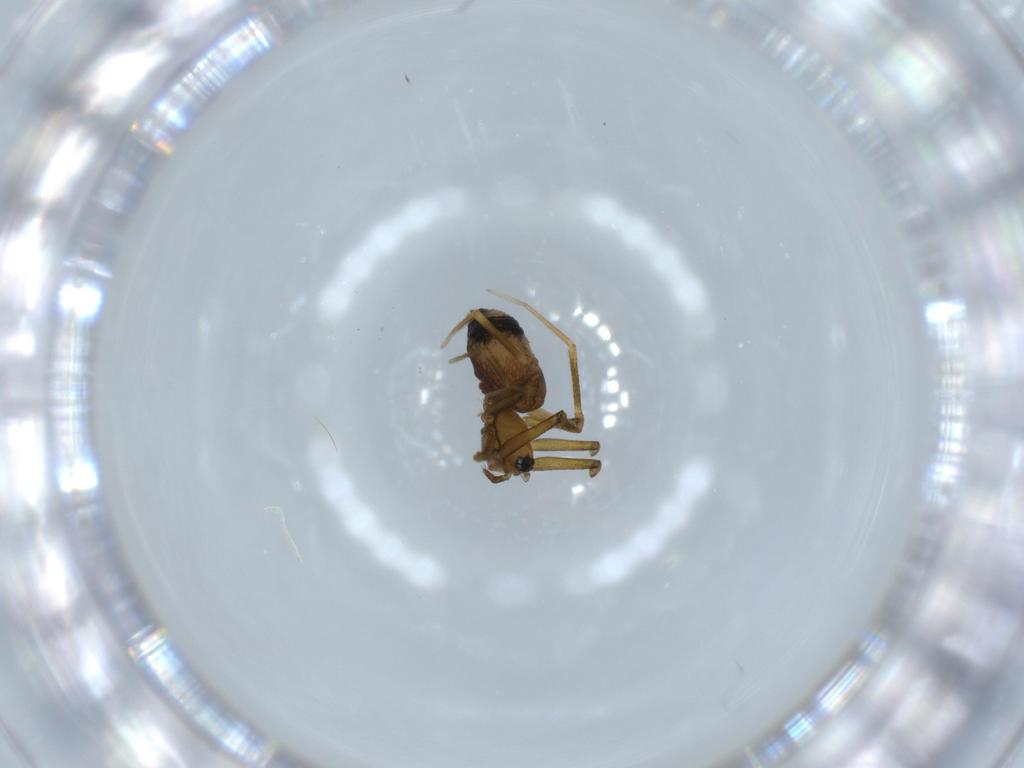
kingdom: Animalia
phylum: Arthropoda
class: Arachnida
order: Araneae
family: Linyphiidae
